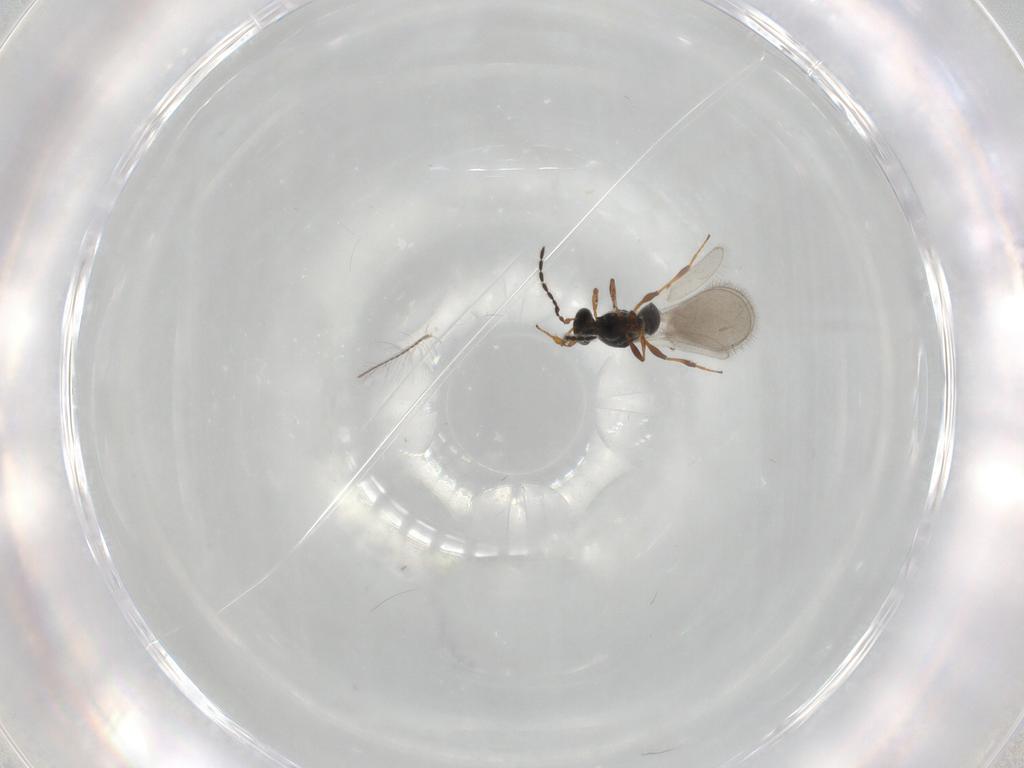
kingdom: Animalia
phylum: Arthropoda
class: Insecta
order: Hymenoptera
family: Platygastridae
